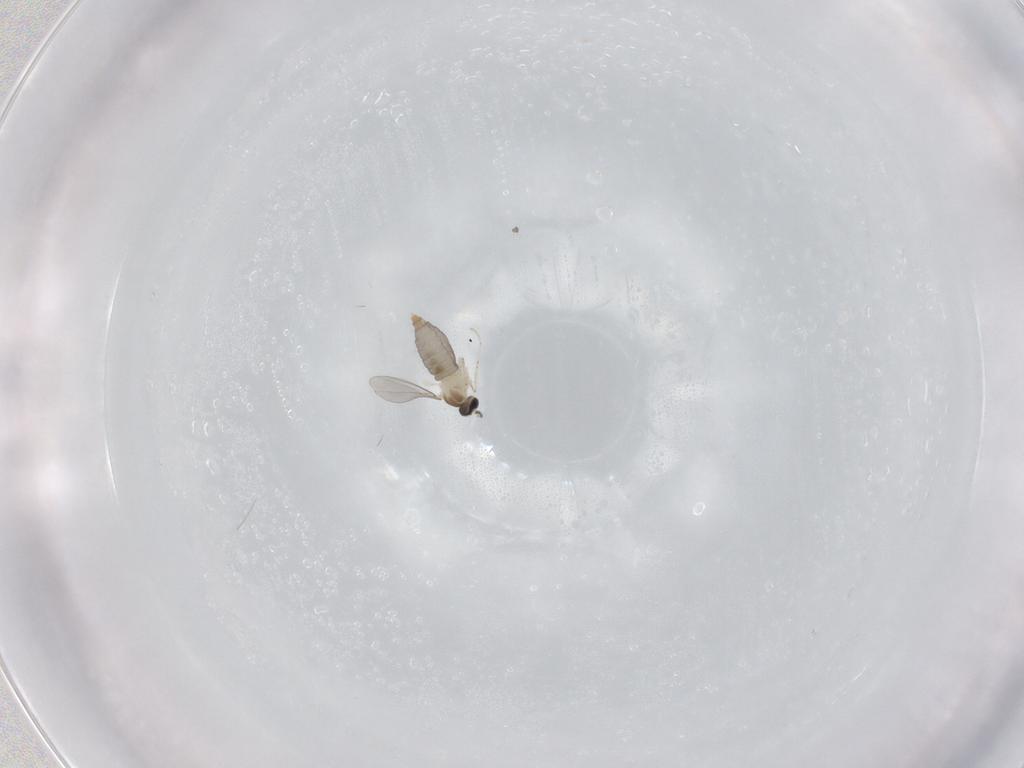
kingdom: Animalia
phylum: Arthropoda
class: Insecta
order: Diptera
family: Cecidomyiidae
